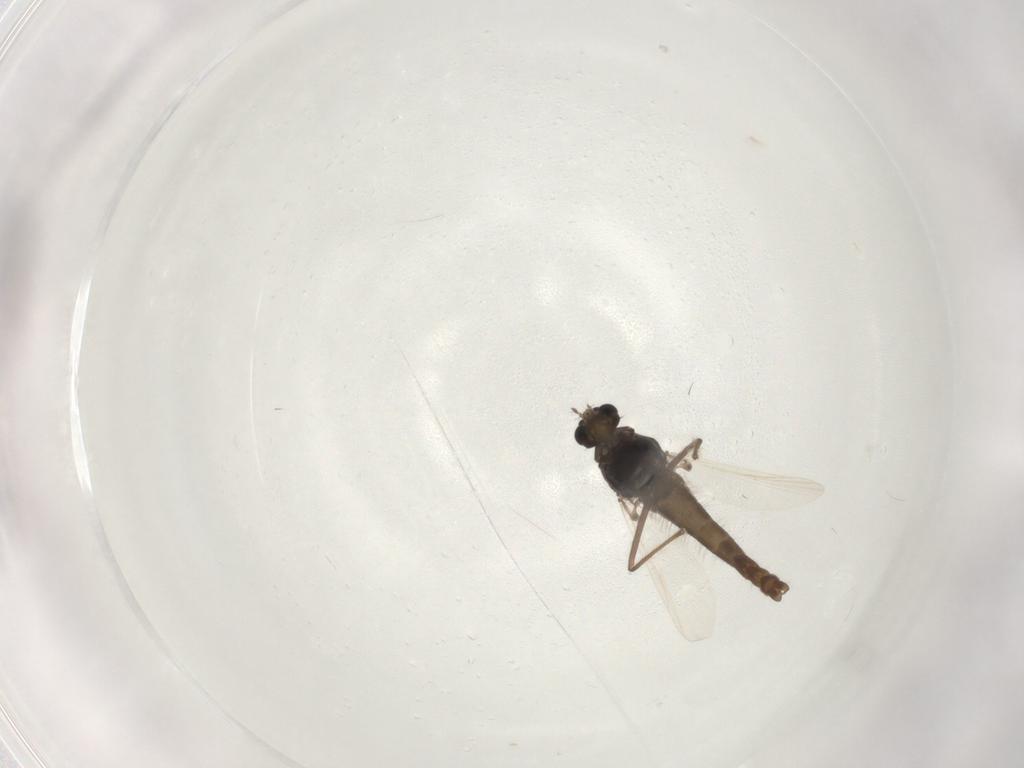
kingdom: Animalia
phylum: Arthropoda
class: Insecta
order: Diptera
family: Chironomidae
